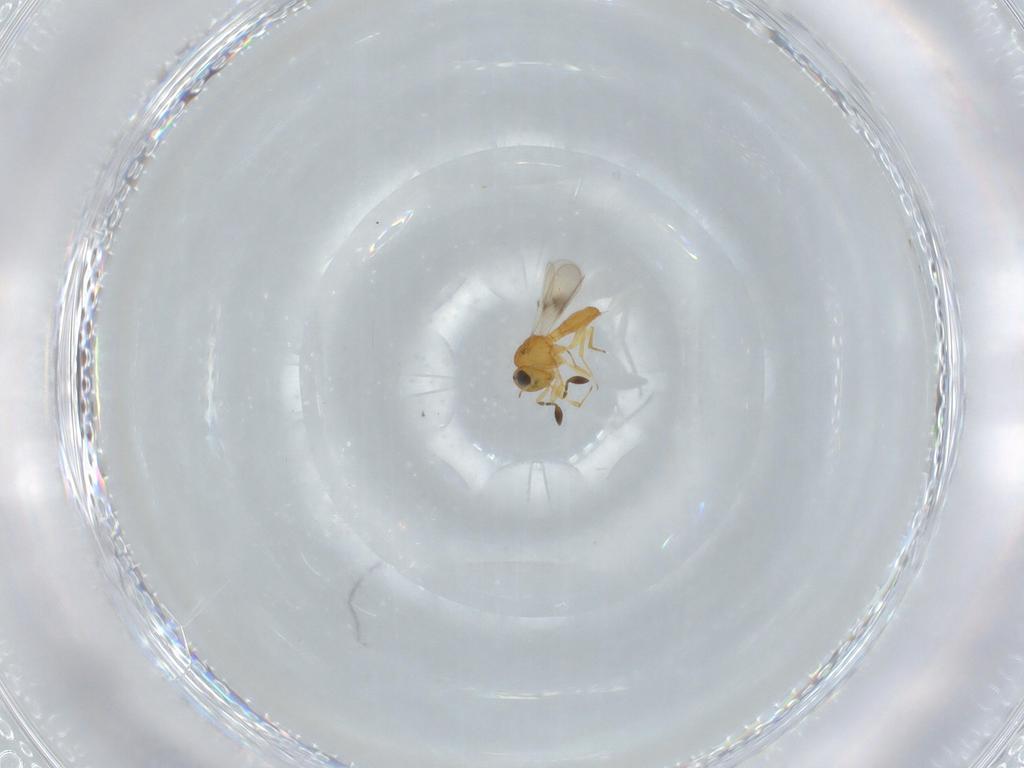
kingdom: Animalia
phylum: Arthropoda
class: Insecta
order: Hymenoptera
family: Scelionidae
